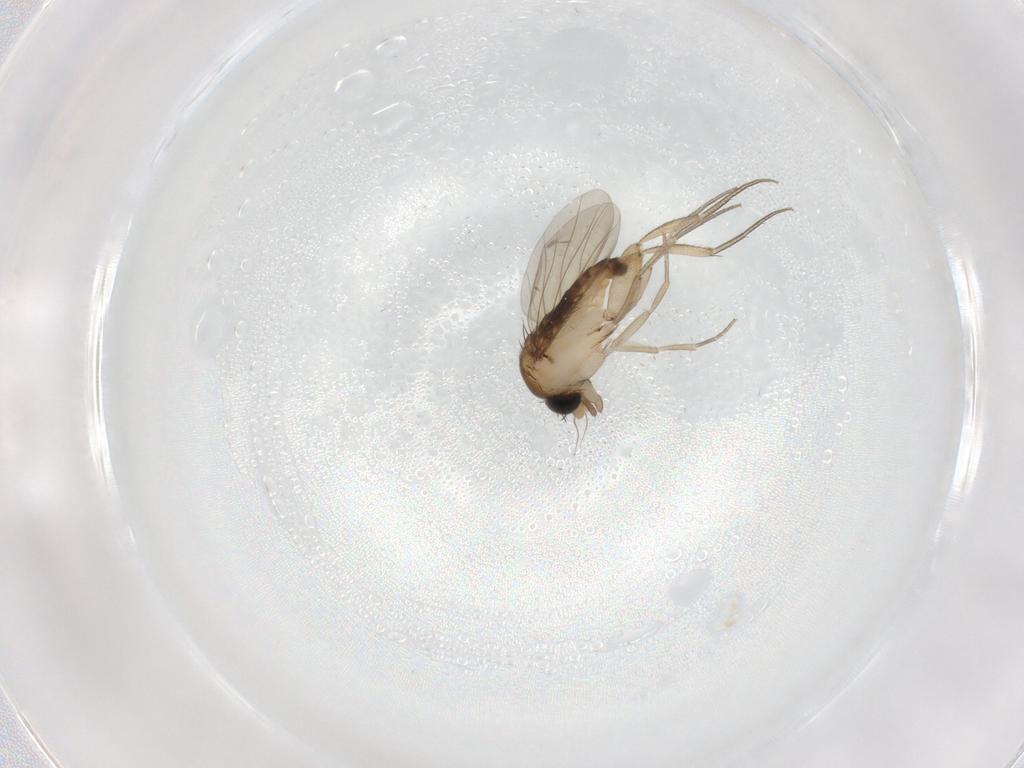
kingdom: Animalia
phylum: Arthropoda
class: Insecta
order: Diptera
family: Phoridae
